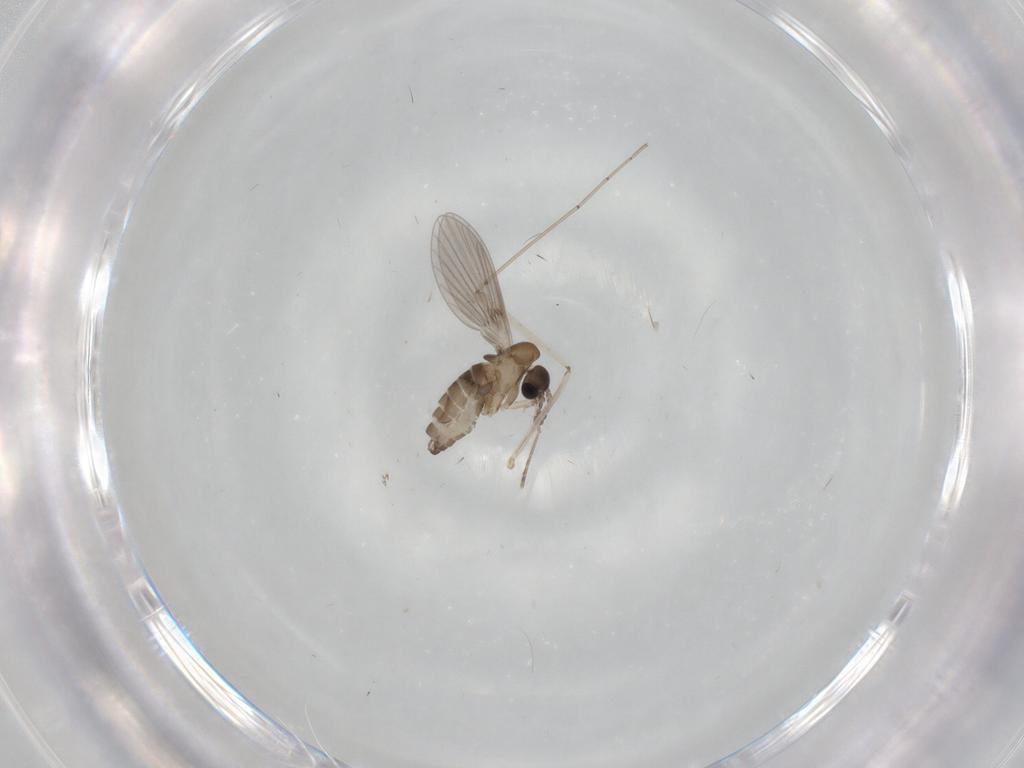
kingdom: Animalia
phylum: Arthropoda
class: Insecta
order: Diptera
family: Cecidomyiidae
